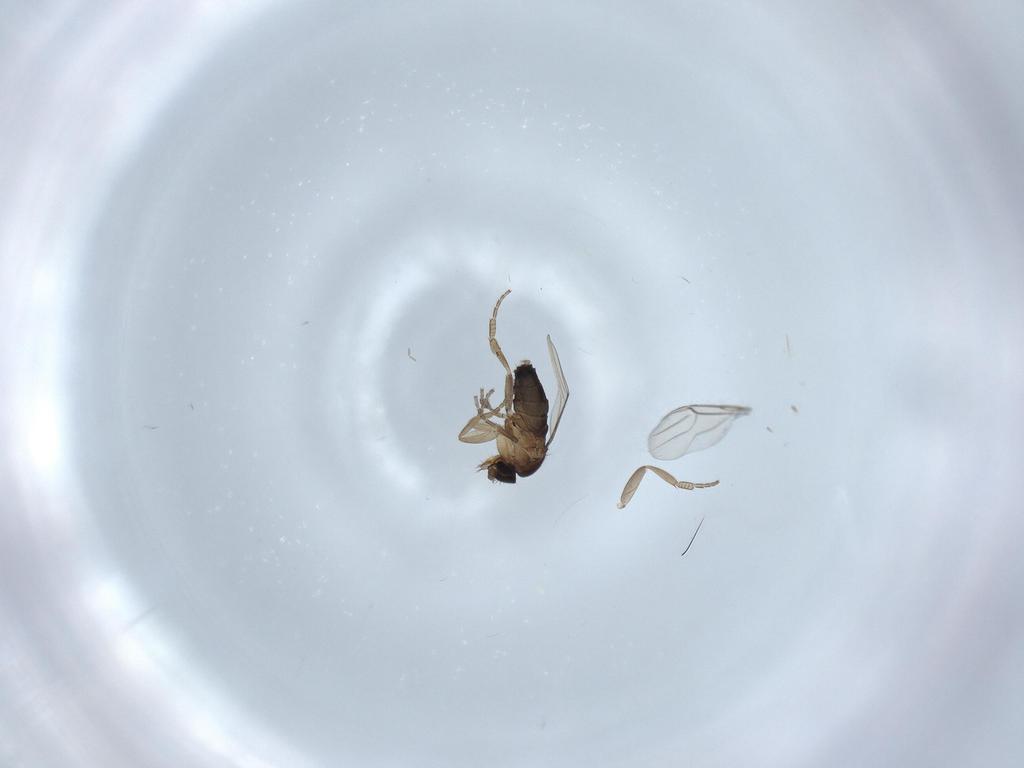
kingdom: Animalia
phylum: Arthropoda
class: Insecta
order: Diptera
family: Phoridae
